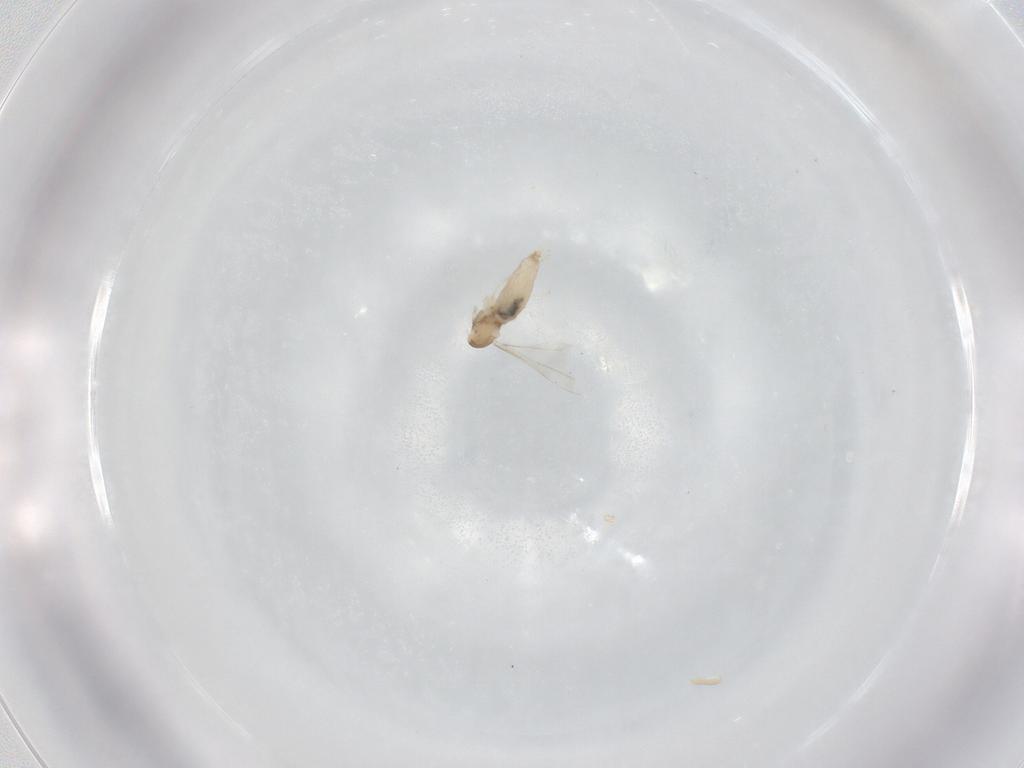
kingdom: Animalia
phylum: Arthropoda
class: Insecta
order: Diptera
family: Cecidomyiidae
